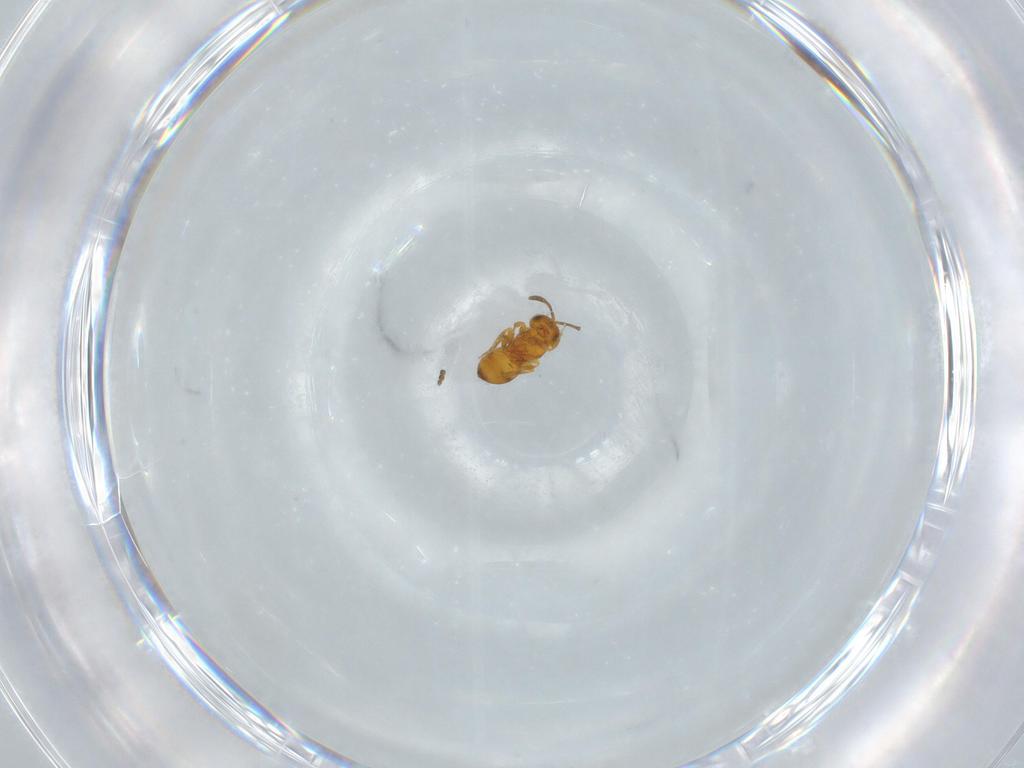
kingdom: Animalia
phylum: Arthropoda
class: Insecta
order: Hymenoptera
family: Scelionidae
